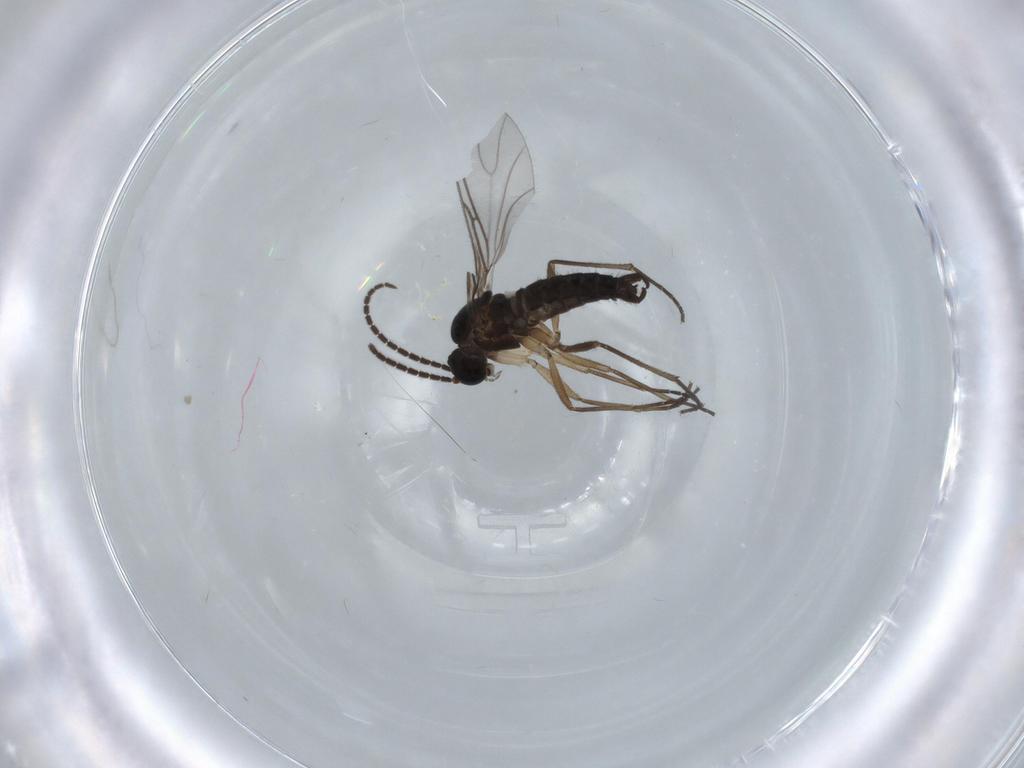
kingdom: Animalia
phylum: Arthropoda
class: Insecta
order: Diptera
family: Sciaridae
